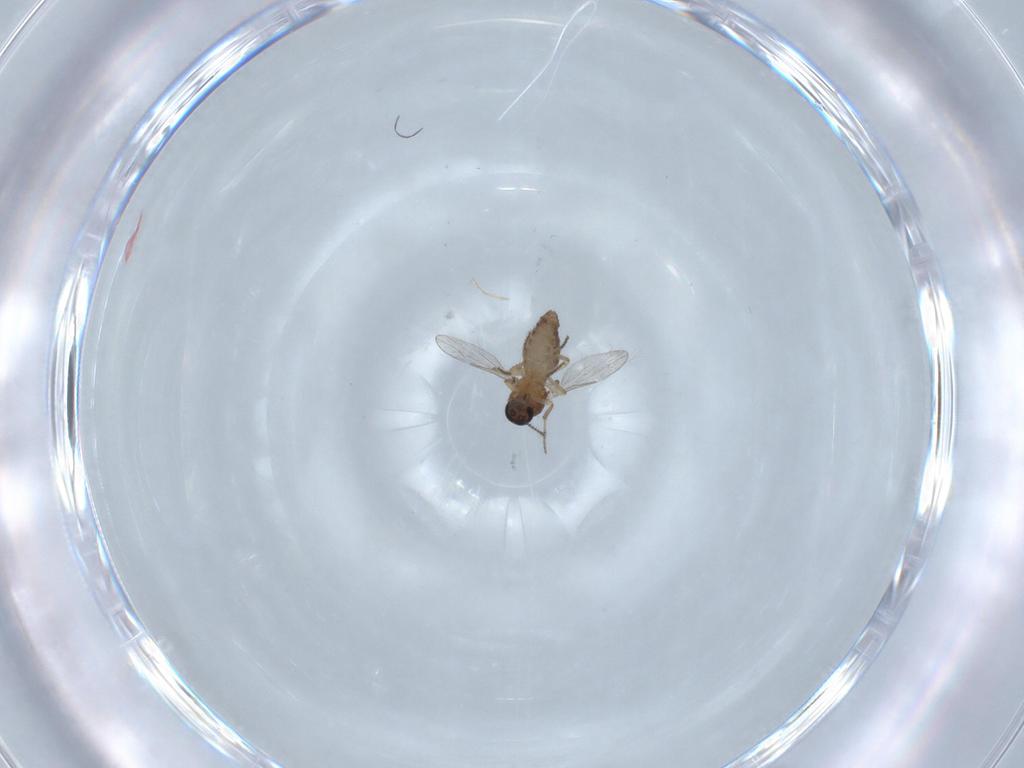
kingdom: Animalia
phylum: Arthropoda
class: Insecta
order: Diptera
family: Ceratopogonidae
